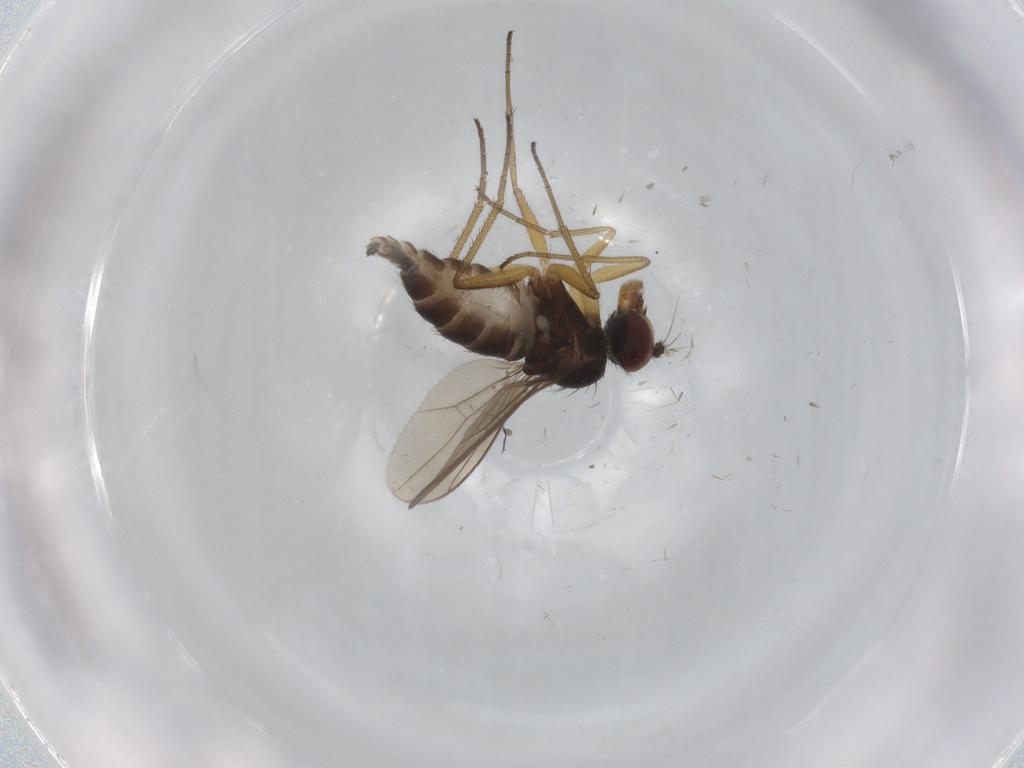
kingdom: Animalia
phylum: Arthropoda
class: Insecta
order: Diptera
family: Dolichopodidae
